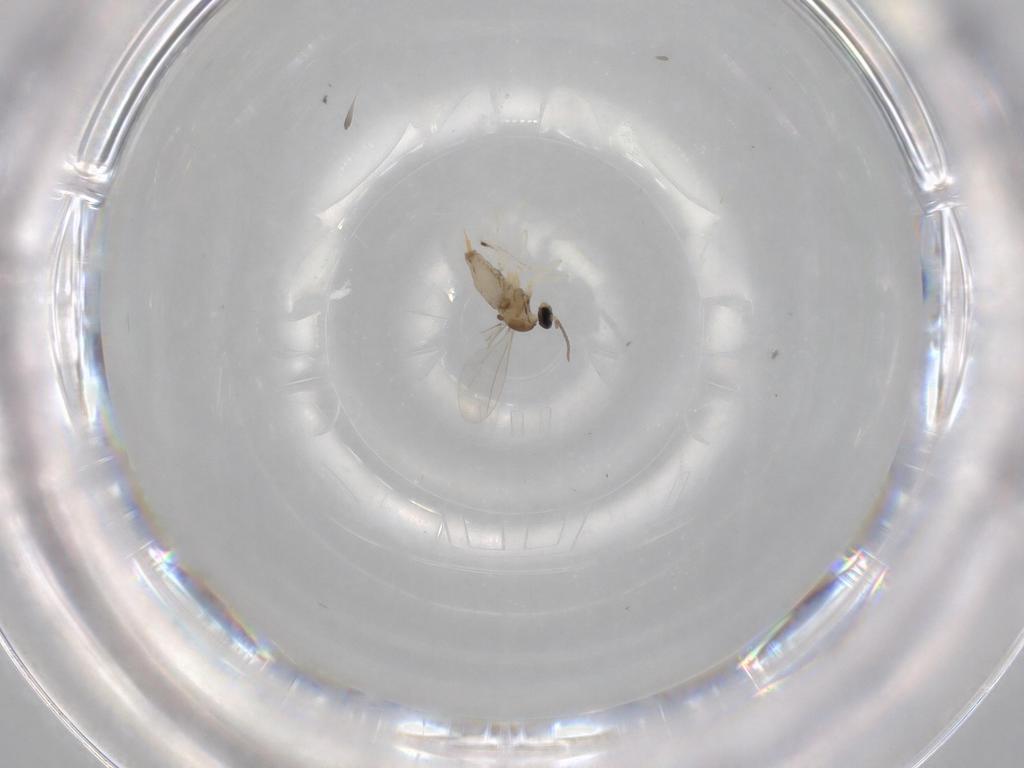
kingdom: Animalia
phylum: Arthropoda
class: Insecta
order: Diptera
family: Cecidomyiidae
